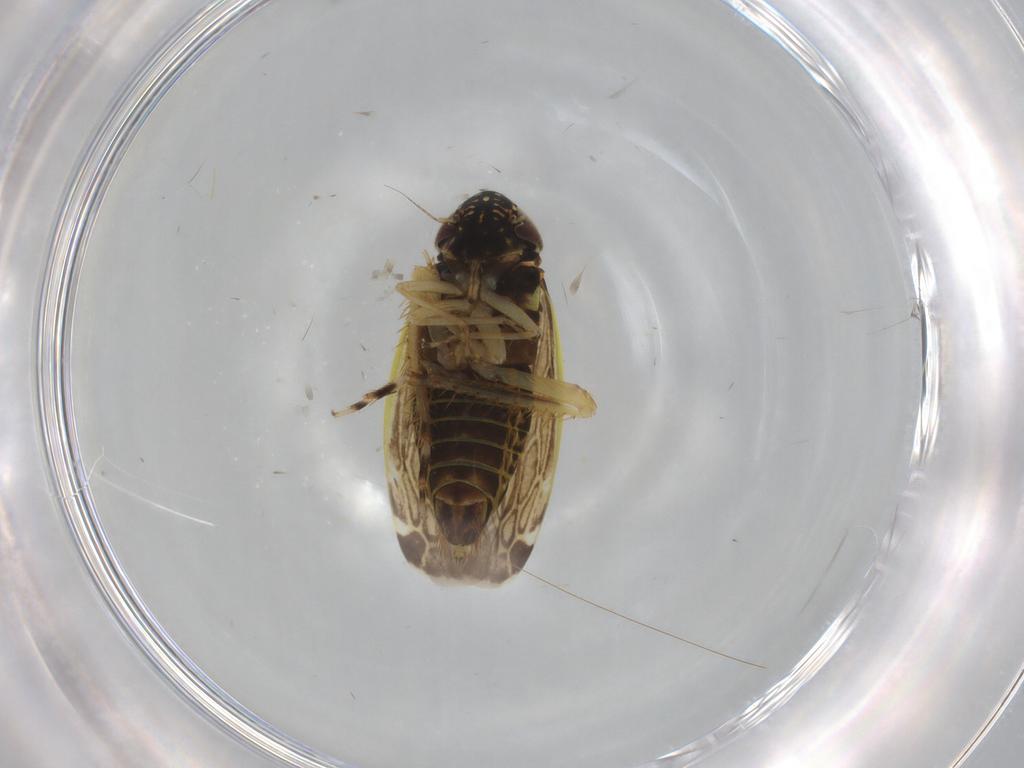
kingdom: Animalia
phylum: Arthropoda
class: Insecta
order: Hemiptera
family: Cicadellidae
